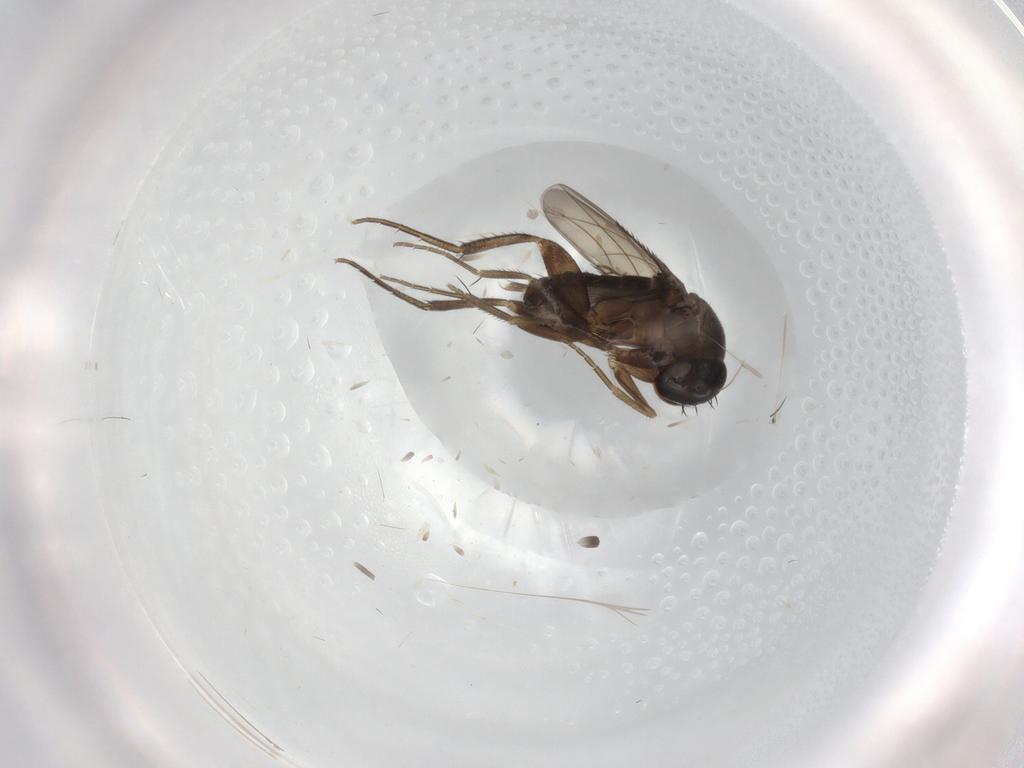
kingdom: Animalia
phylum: Arthropoda
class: Insecta
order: Diptera
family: Phoridae
